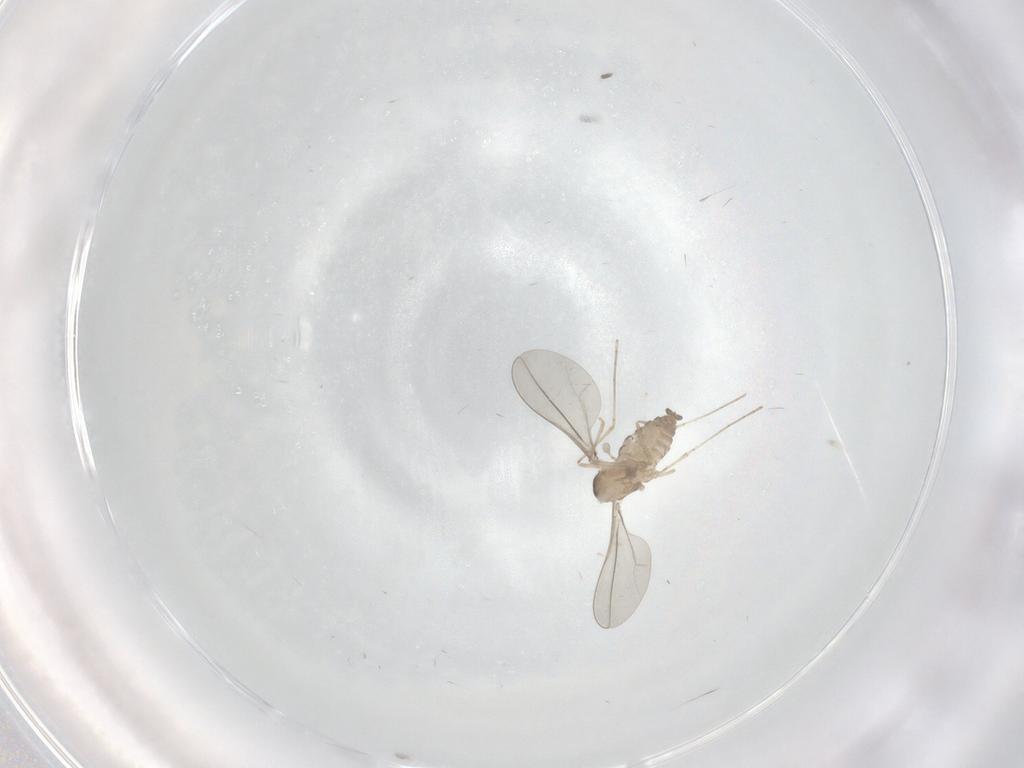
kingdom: Animalia
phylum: Arthropoda
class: Insecta
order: Diptera
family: Cecidomyiidae
